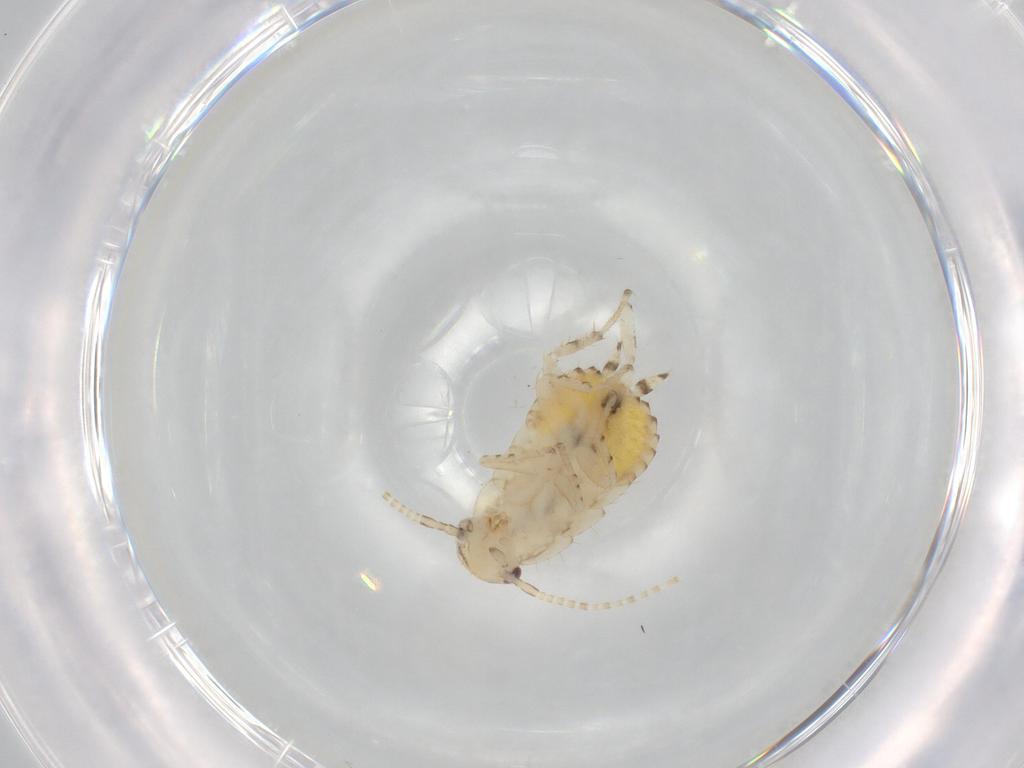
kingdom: Animalia
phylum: Arthropoda
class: Insecta
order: Blattodea
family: Ectobiidae
